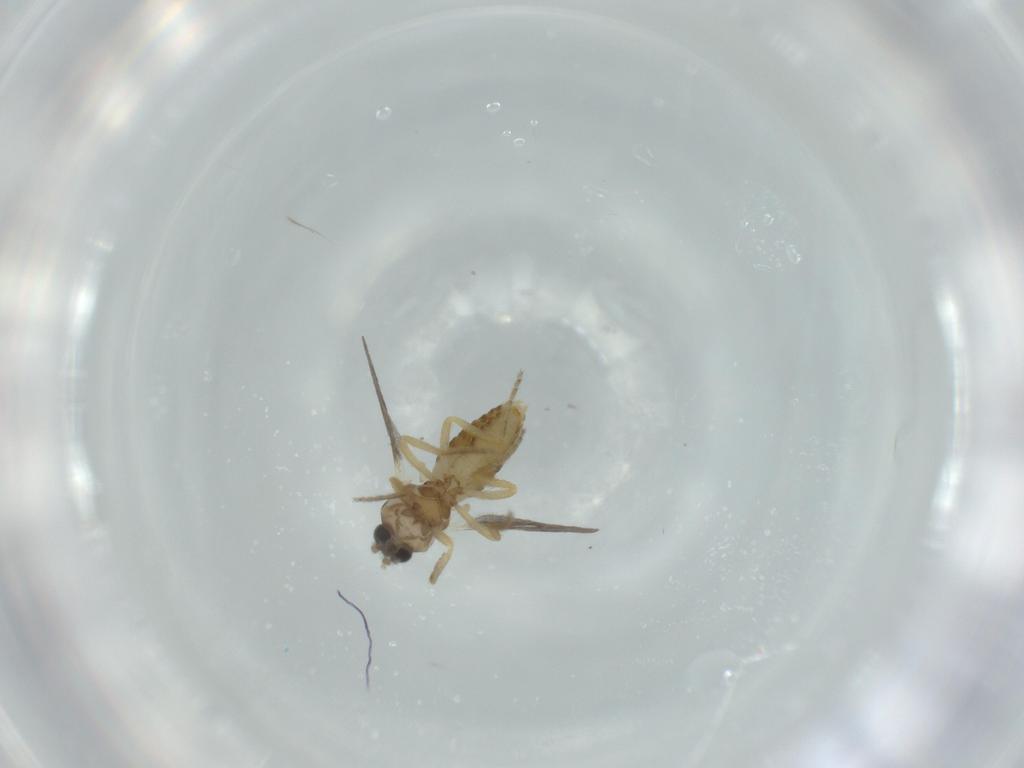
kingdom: Animalia
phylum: Arthropoda
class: Insecta
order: Diptera
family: Ceratopogonidae
